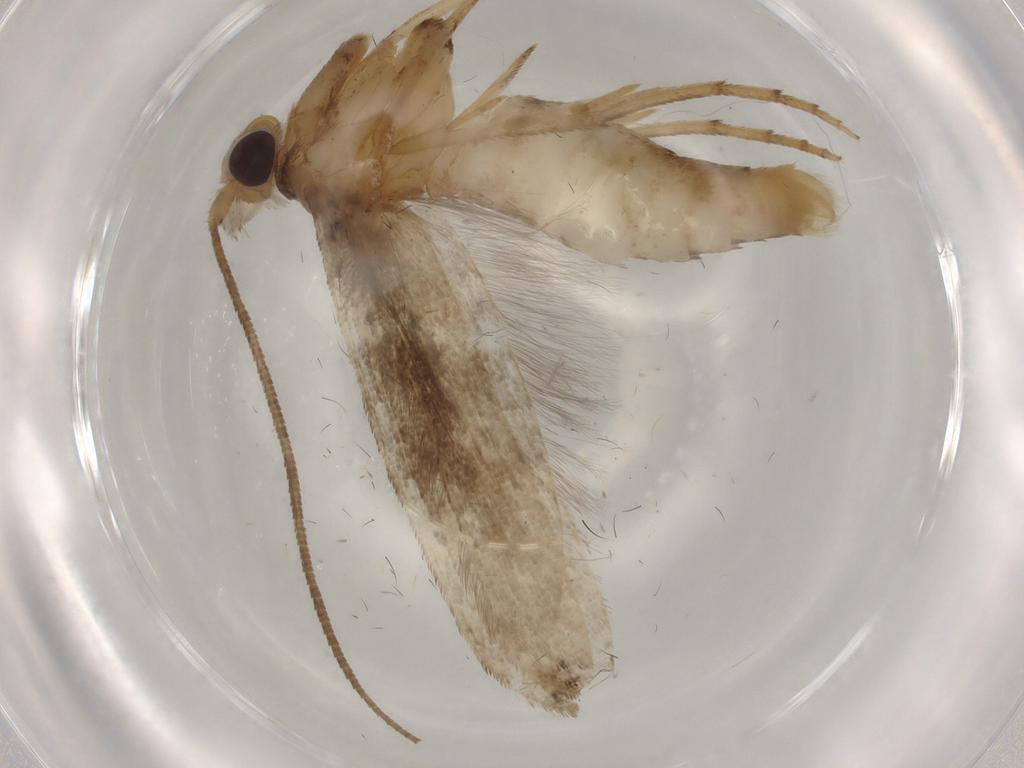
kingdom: Animalia
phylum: Arthropoda
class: Insecta
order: Lepidoptera
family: Yponomeutidae
